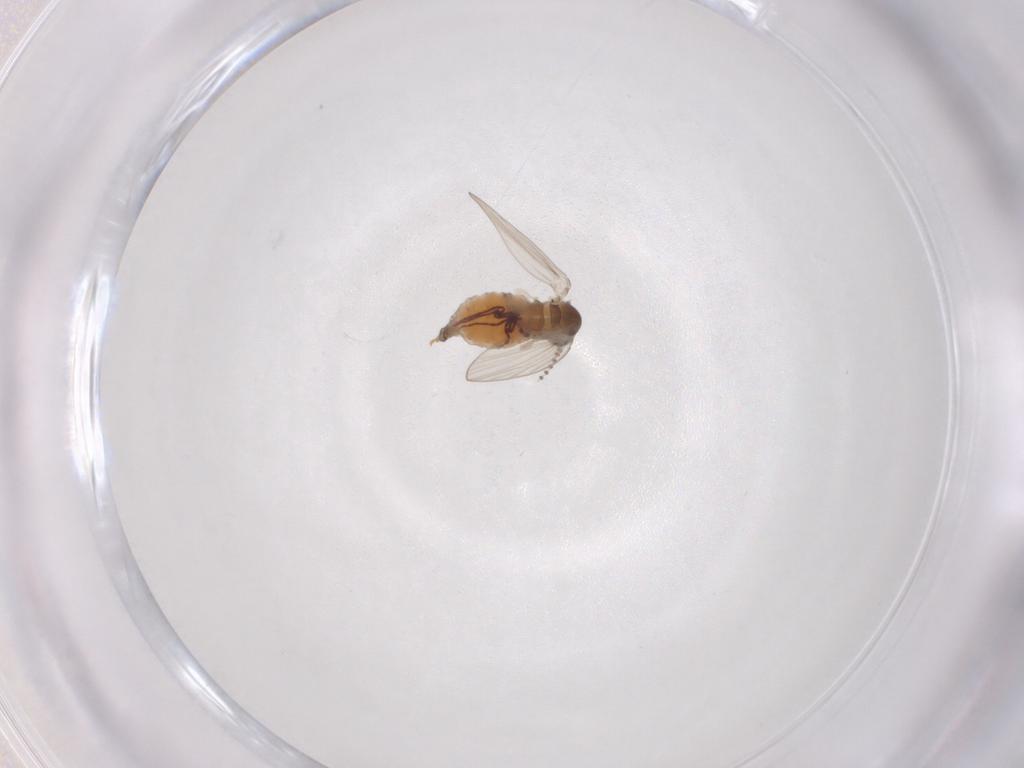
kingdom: Animalia
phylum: Arthropoda
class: Insecta
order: Diptera
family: Psychodidae
